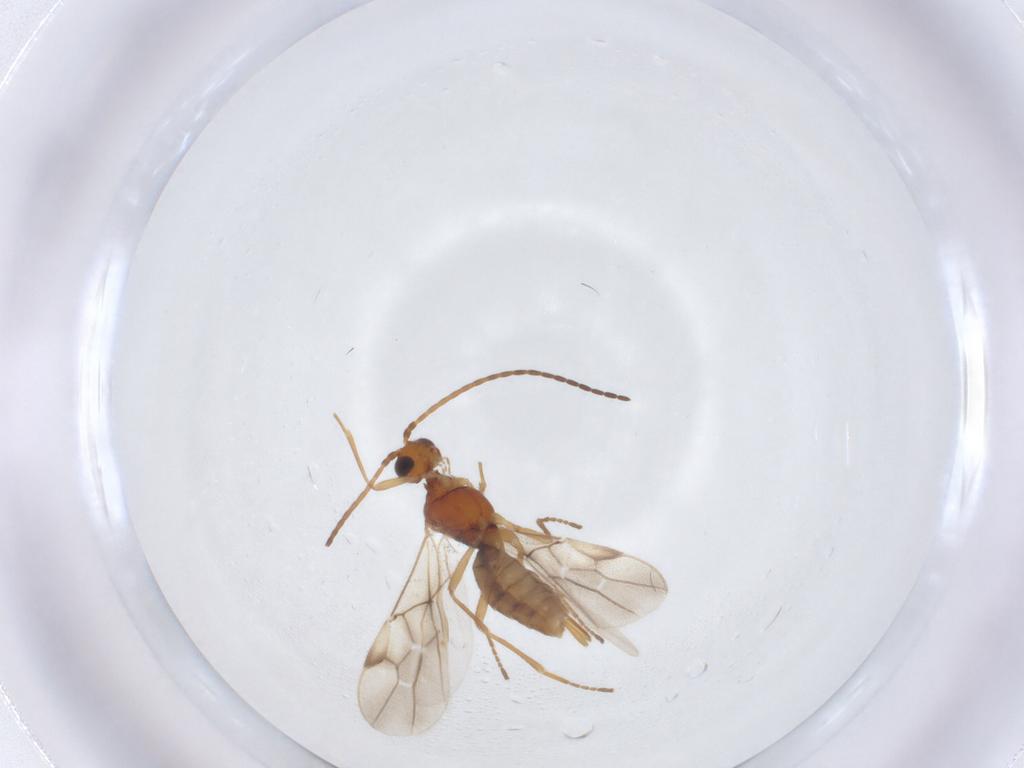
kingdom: Animalia
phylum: Arthropoda
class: Insecta
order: Hymenoptera
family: Braconidae
